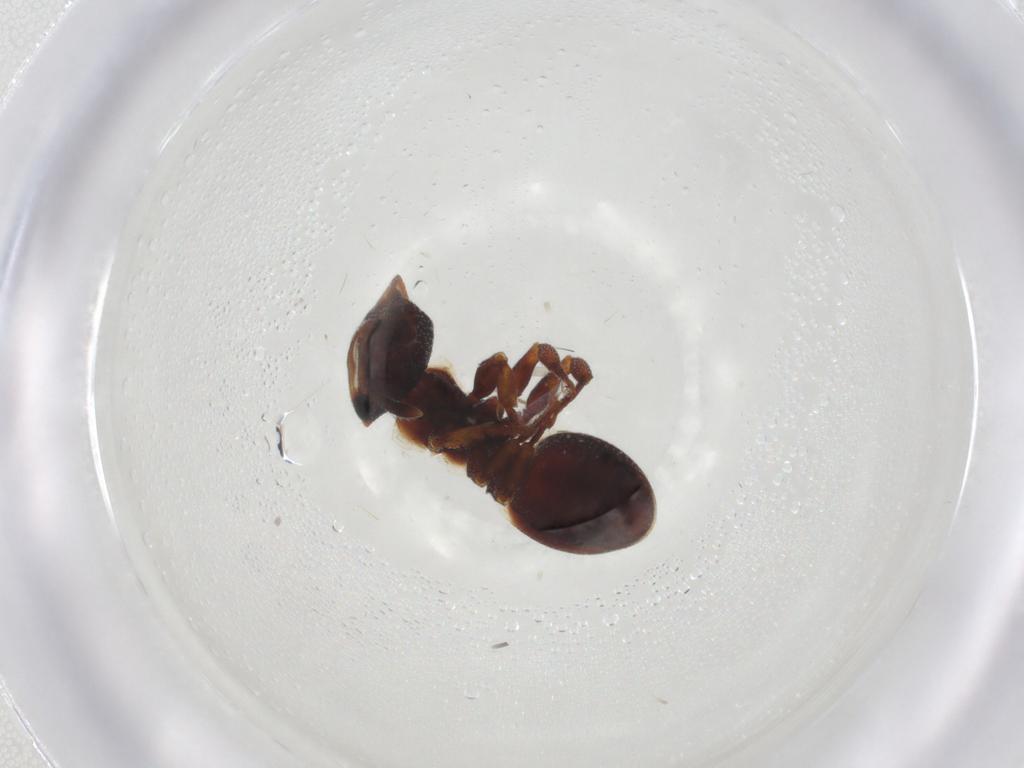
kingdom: Animalia
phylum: Arthropoda
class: Insecta
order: Hymenoptera
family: Formicidae
